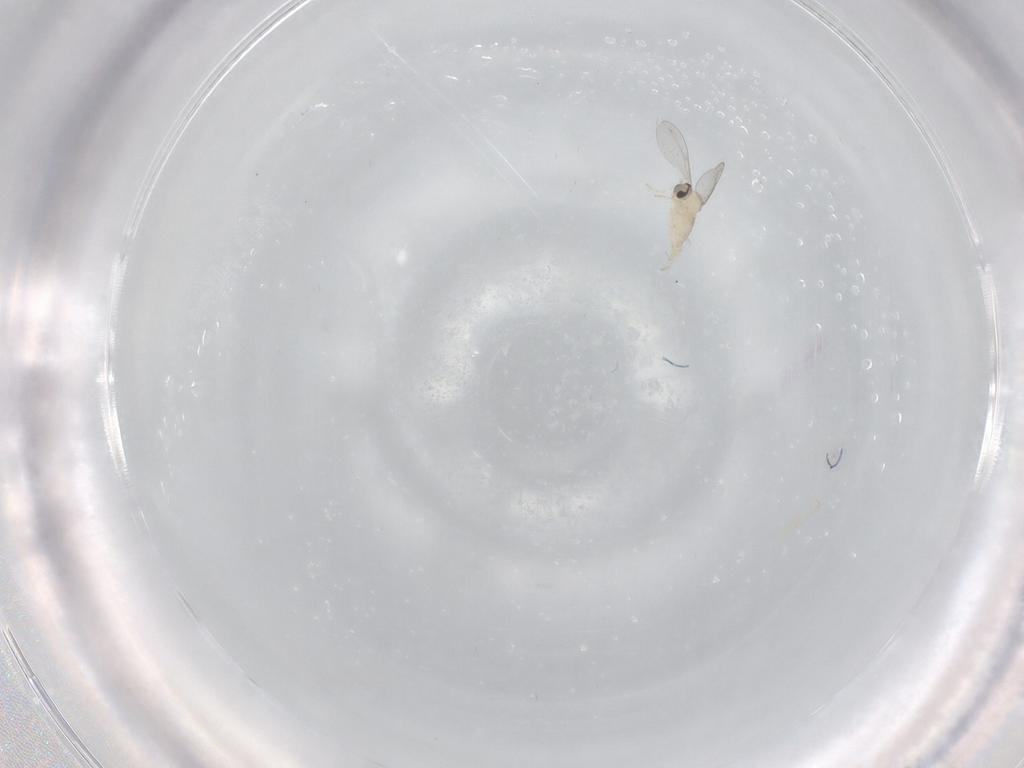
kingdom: Animalia
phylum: Arthropoda
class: Insecta
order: Diptera
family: Cecidomyiidae
